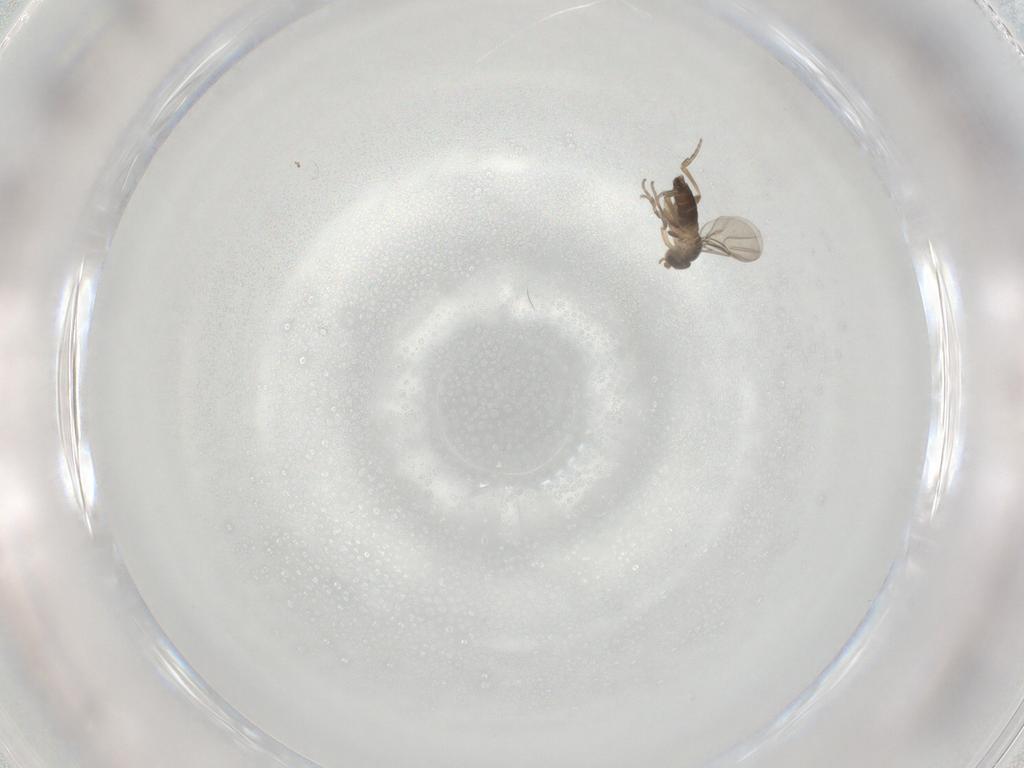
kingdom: Animalia
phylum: Arthropoda
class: Insecta
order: Diptera
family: Phoridae
